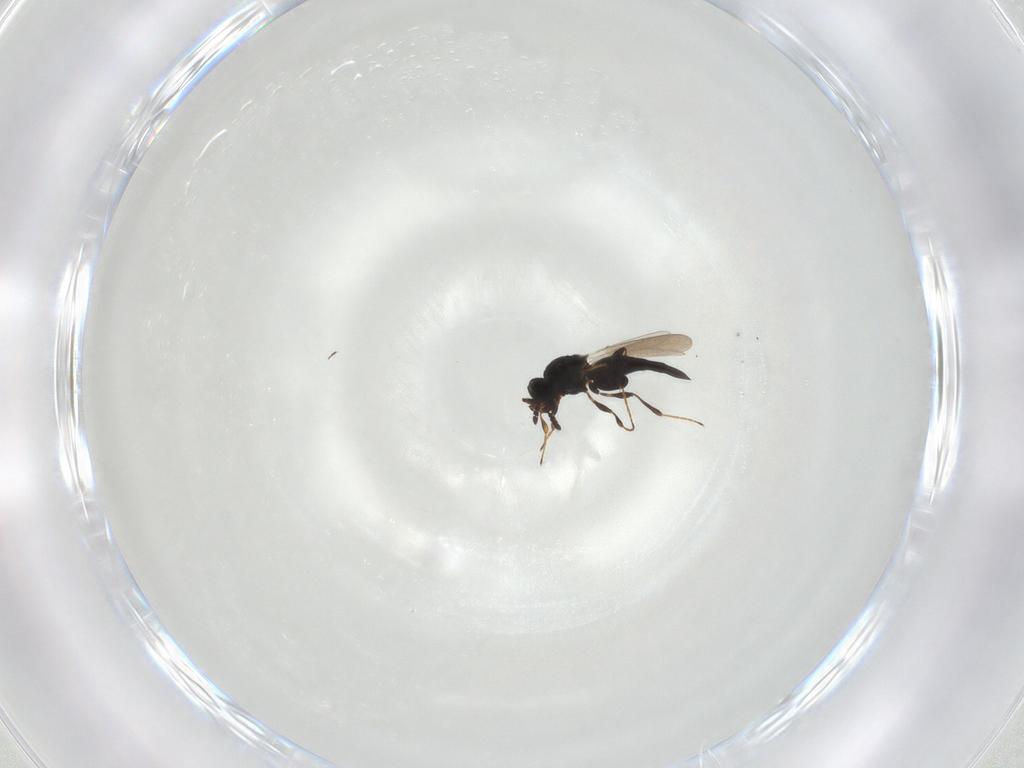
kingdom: Animalia
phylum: Arthropoda
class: Insecta
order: Hymenoptera
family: Platygastridae
